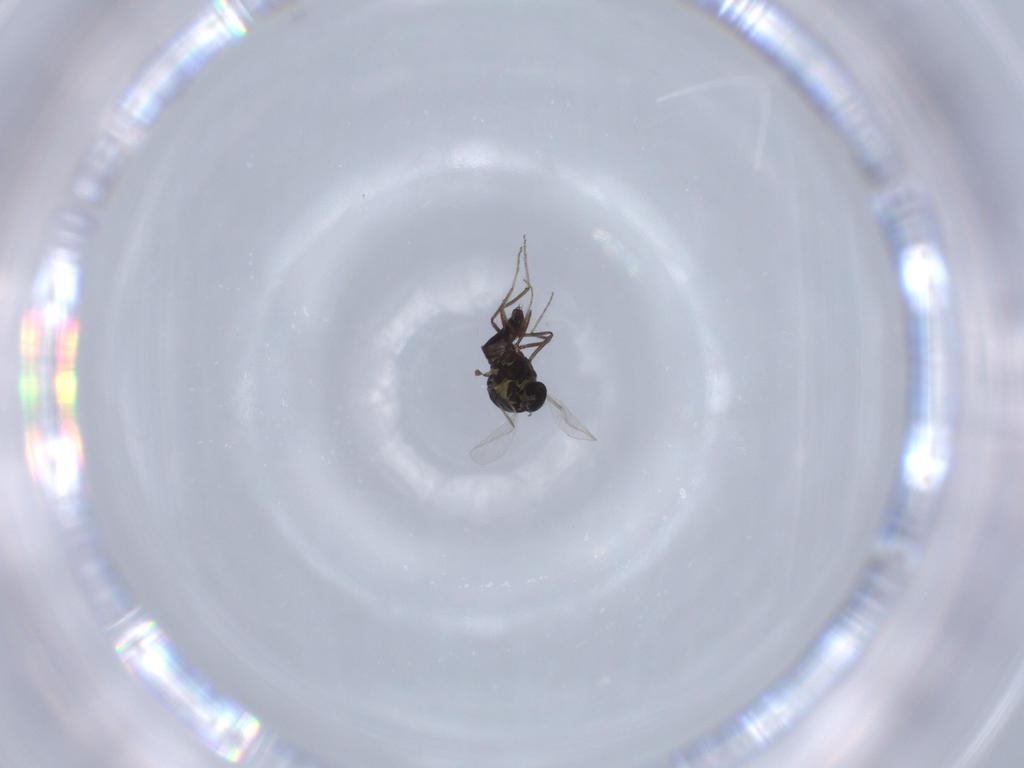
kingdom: Animalia
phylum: Arthropoda
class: Insecta
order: Diptera
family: Ceratopogonidae
